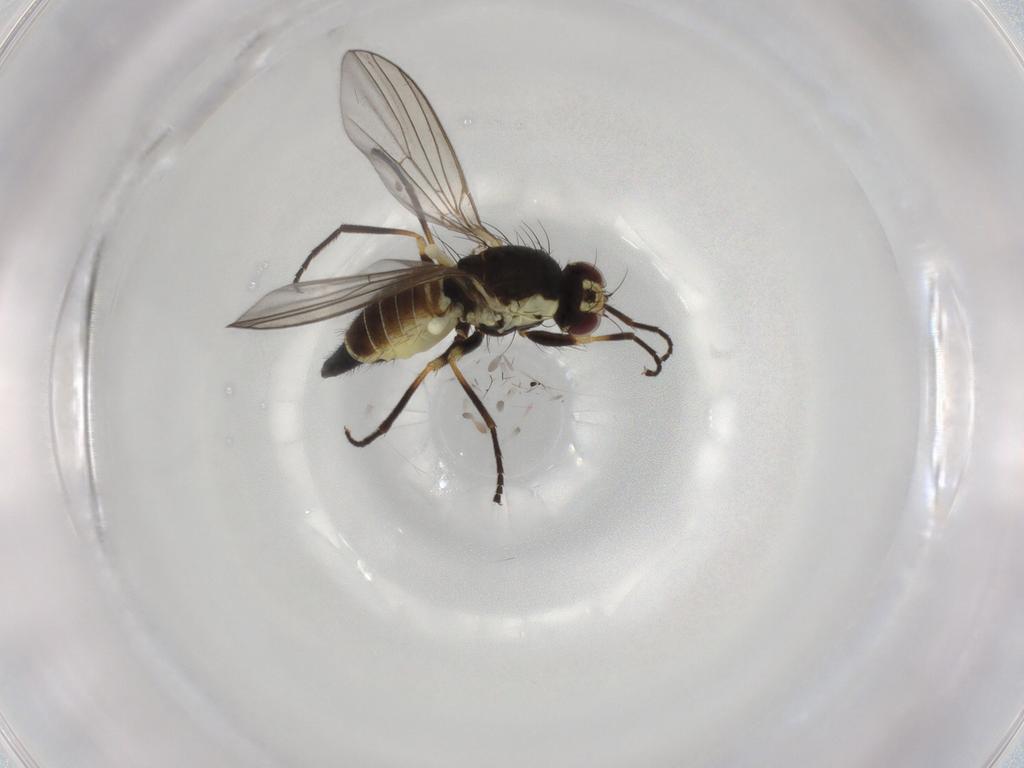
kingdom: Animalia
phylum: Arthropoda
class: Insecta
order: Diptera
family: Agromyzidae
